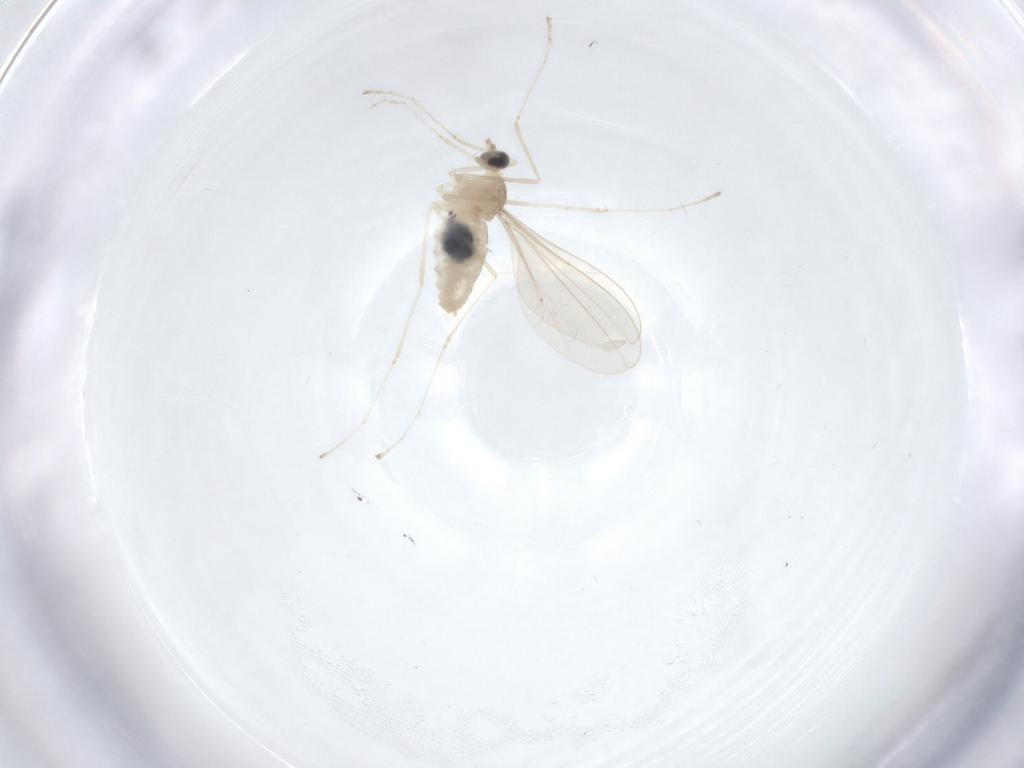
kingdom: Animalia
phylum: Arthropoda
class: Insecta
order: Diptera
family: Cecidomyiidae
